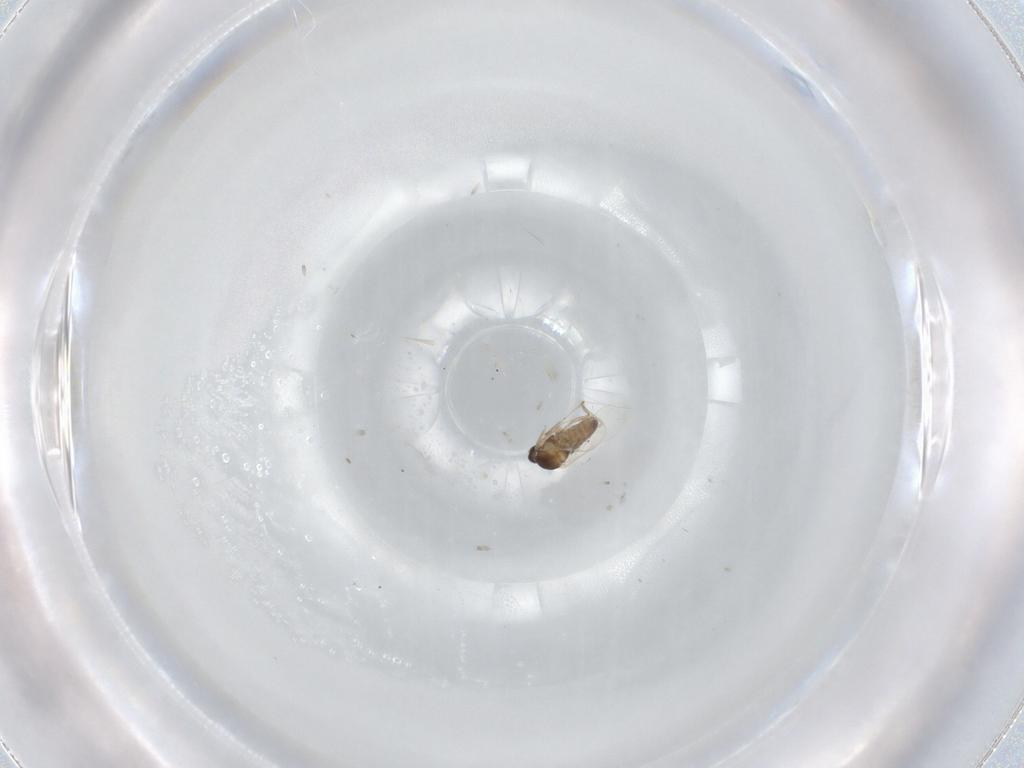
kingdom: Animalia
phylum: Arthropoda
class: Insecta
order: Diptera
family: Cecidomyiidae
